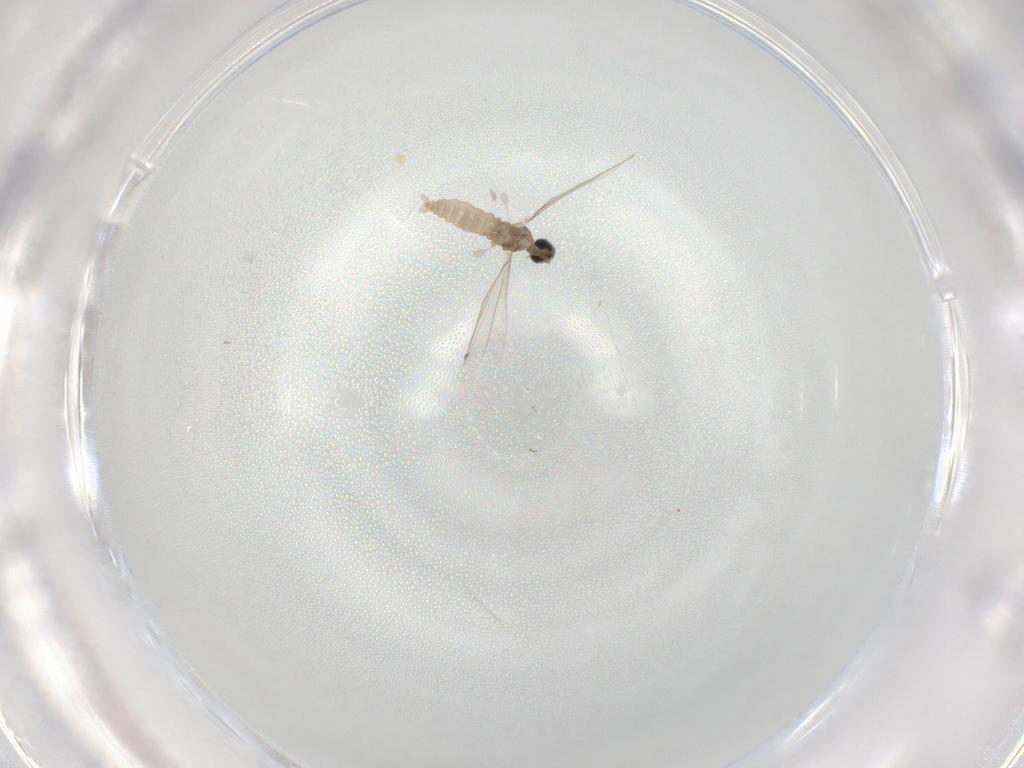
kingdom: Animalia
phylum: Arthropoda
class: Insecta
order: Diptera
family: Cecidomyiidae
